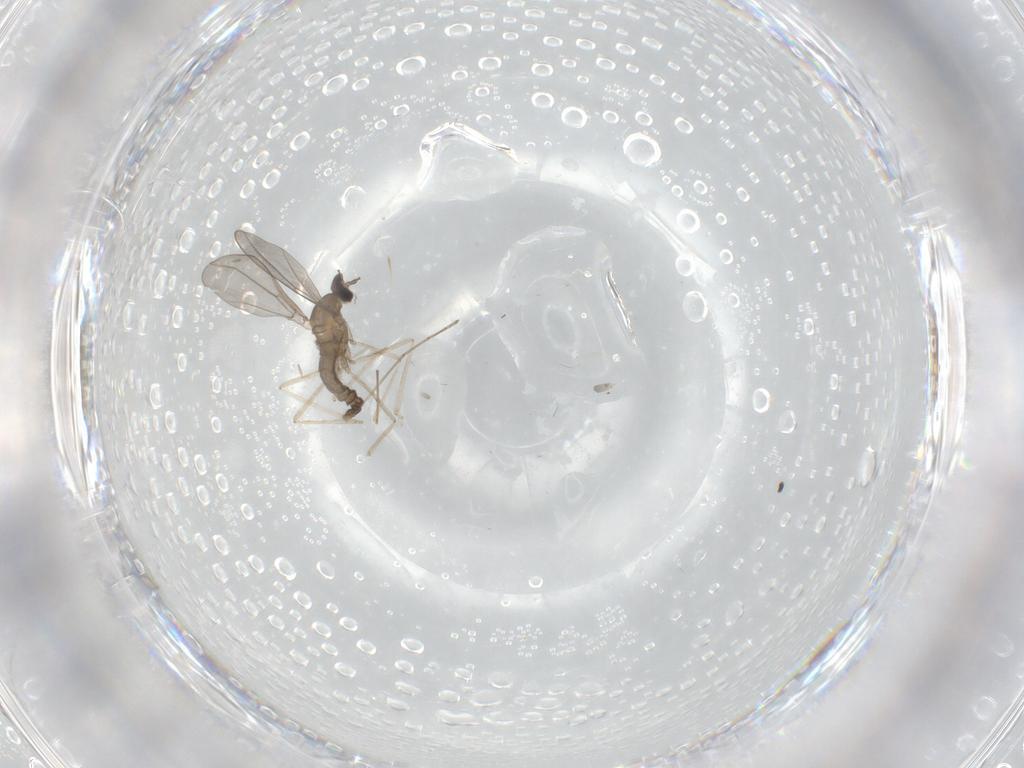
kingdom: Animalia
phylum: Arthropoda
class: Insecta
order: Diptera
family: Cecidomyiidae
